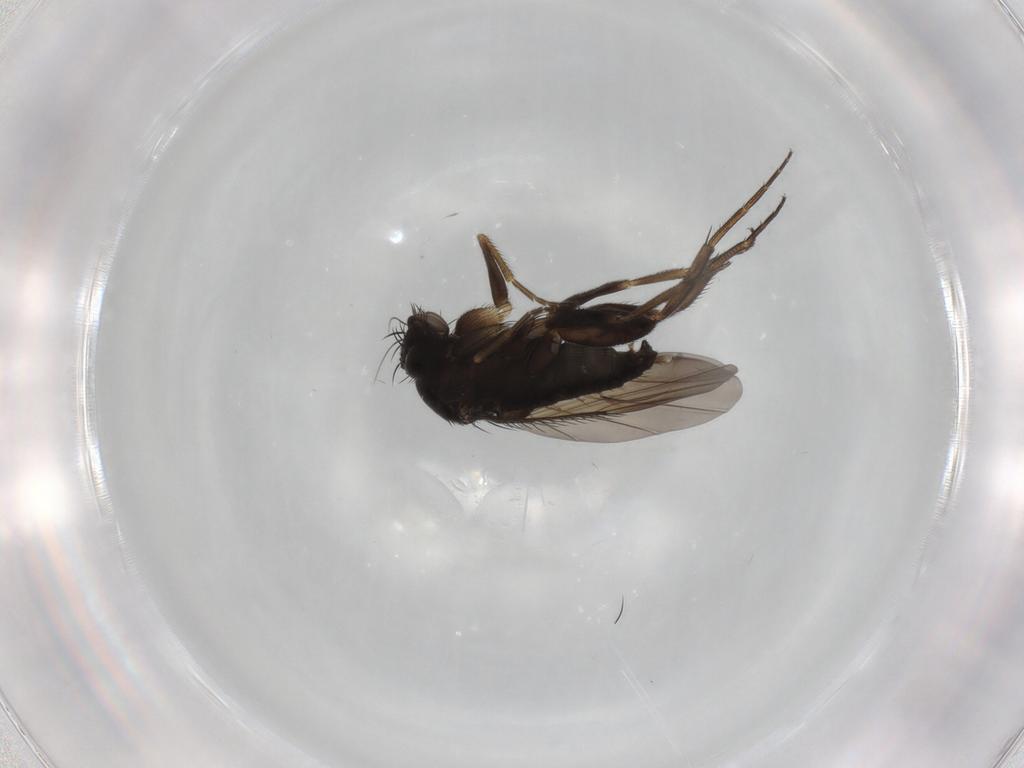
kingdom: Animalia
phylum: Arthropoda
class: Insecta
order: Diptera
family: Phoridae
